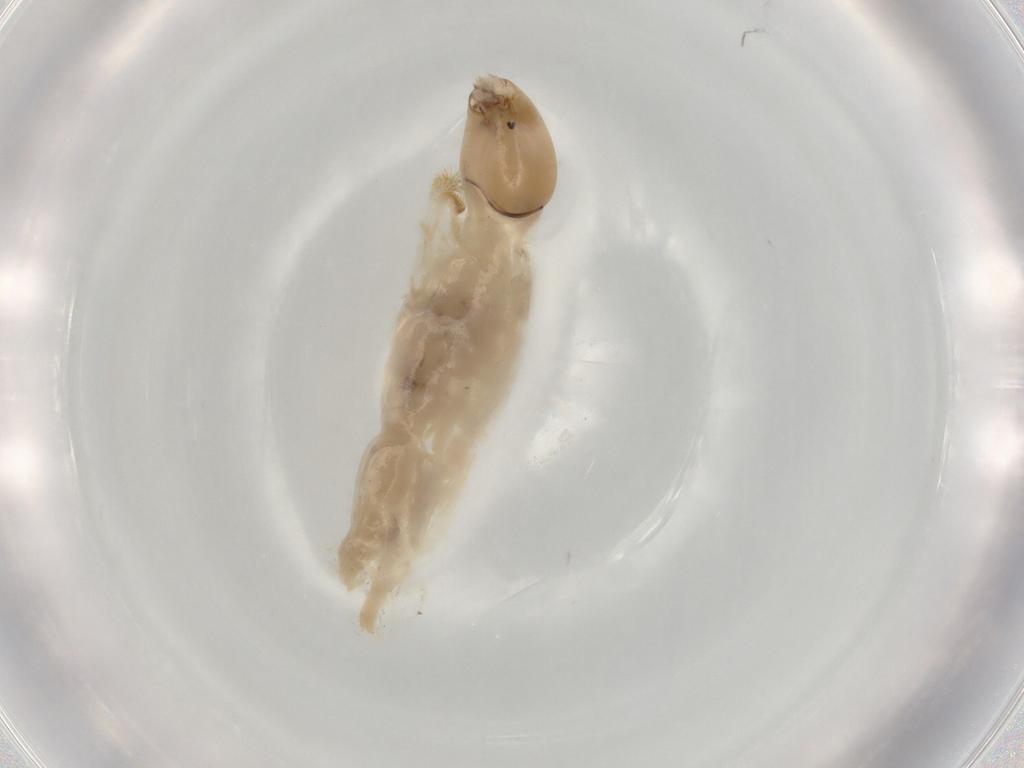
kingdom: Animalia
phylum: Arthropoda
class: Insecta
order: Diptera
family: Chironomidae
